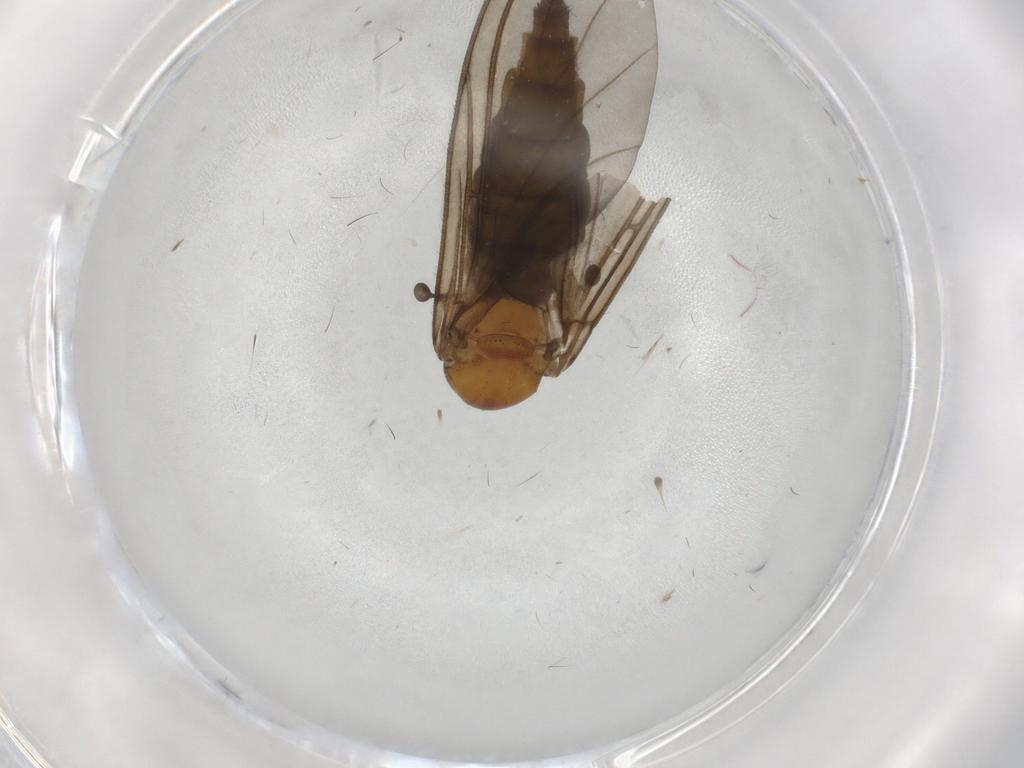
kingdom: Animalia
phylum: Arthropoda
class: Insecta
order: Diptera
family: Sciaridae
